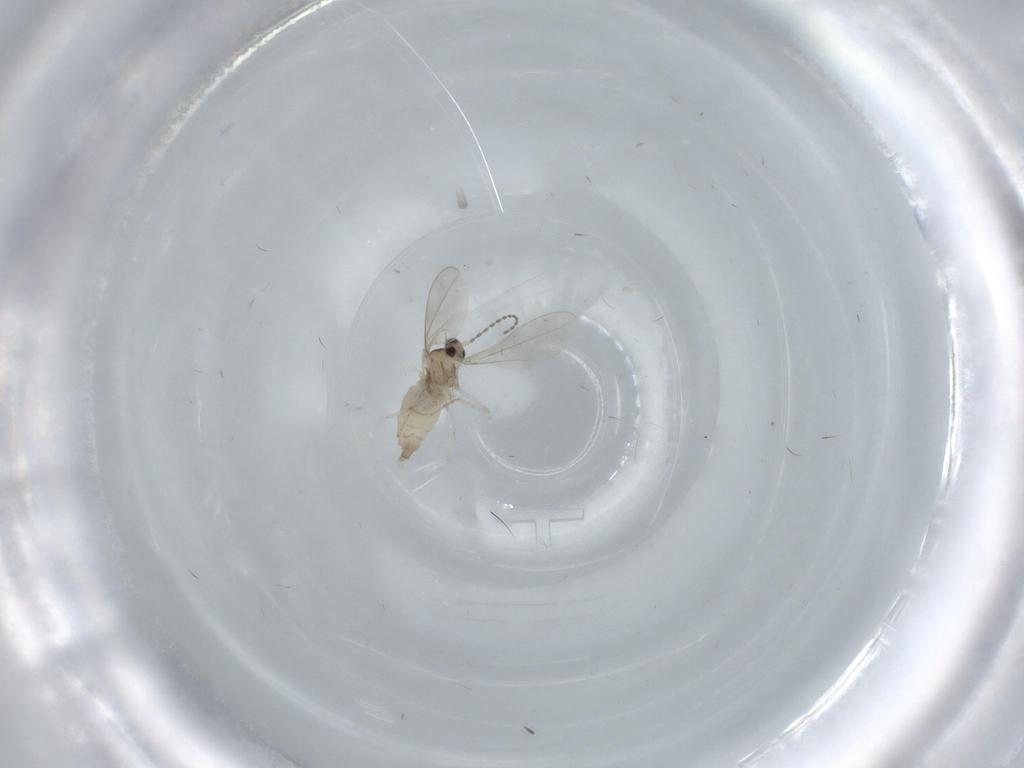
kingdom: Animalia
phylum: Arthropoda
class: Insecta
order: Diptera
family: Cecidomyiidae
